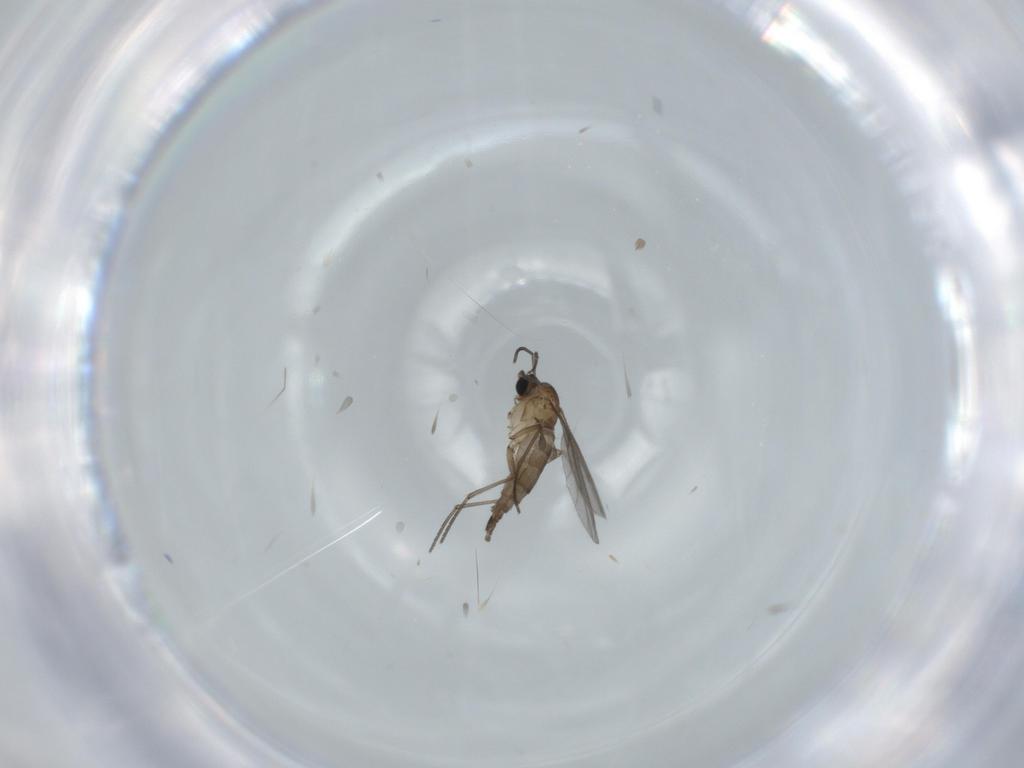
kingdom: Animalia
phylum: Arthropoda
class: Insecta
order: Diptera
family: Sciaridae
